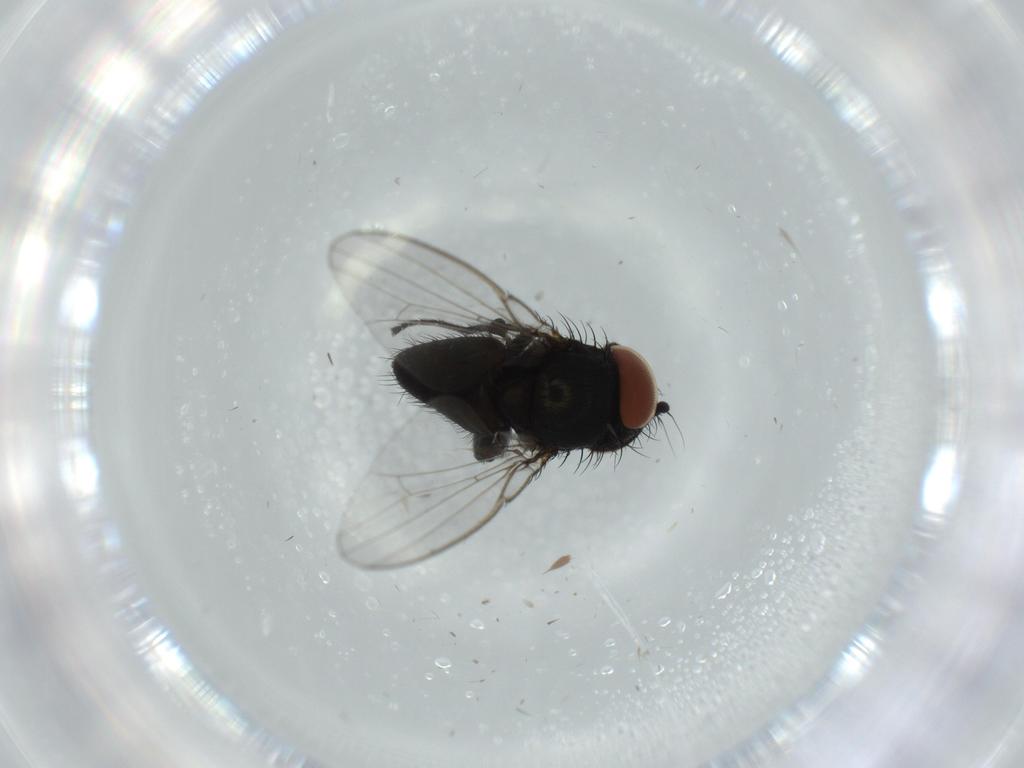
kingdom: Animalia
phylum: Arthropoda
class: Insecta
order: Diptera
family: Milichiidae
